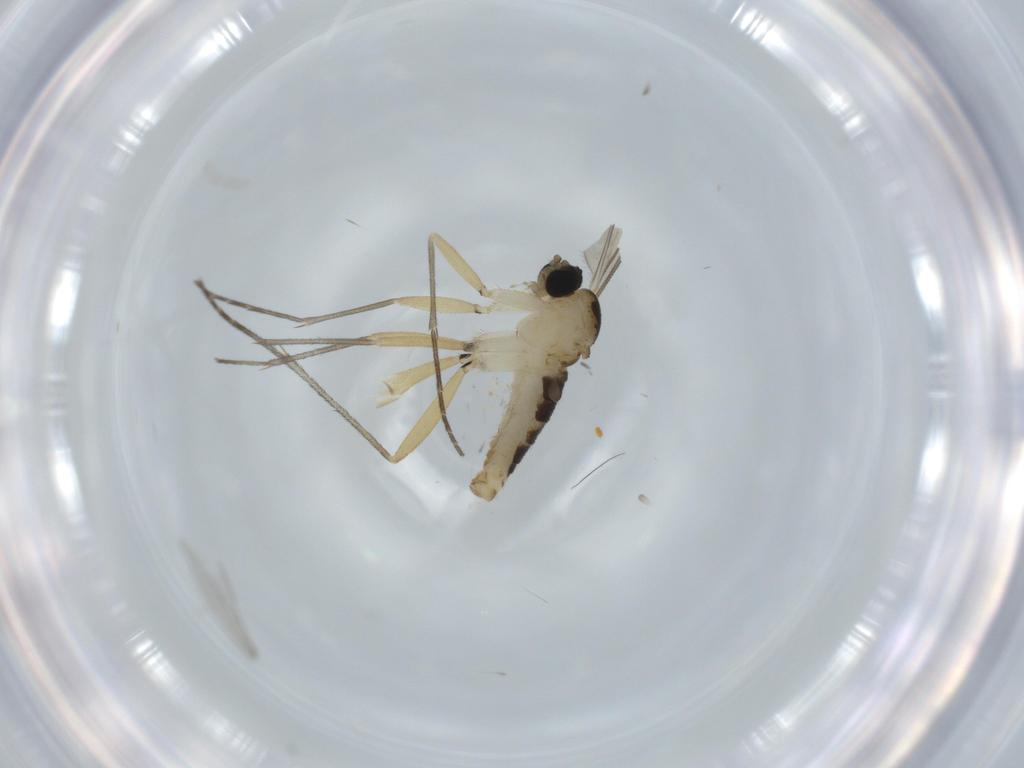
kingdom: Animalia
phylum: Arthropoda
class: Insecta
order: Diptera
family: Sciaridae
